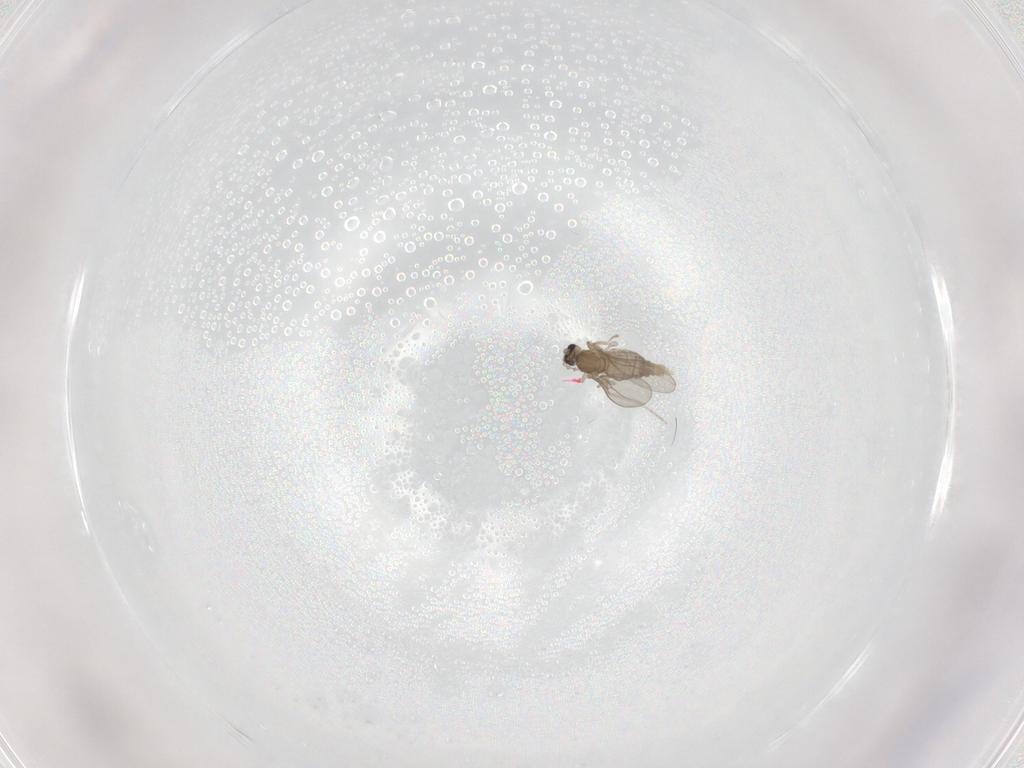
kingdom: Animalia
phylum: Arthropoda
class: Insecta
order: Diptera
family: Cecidomyiidae
